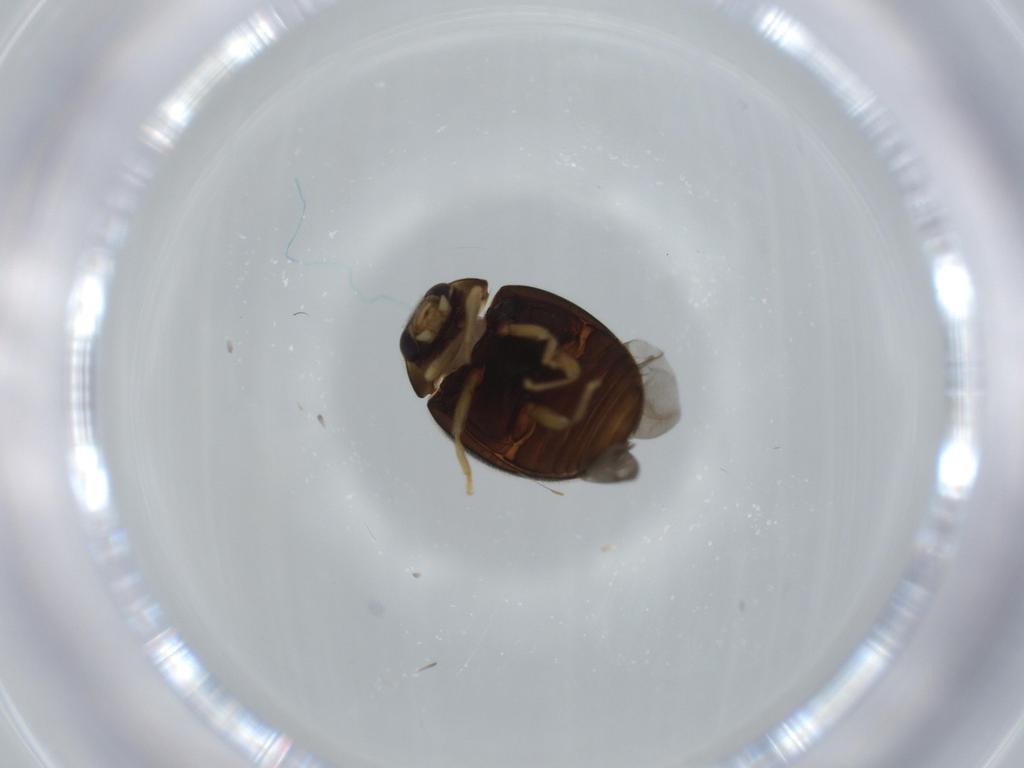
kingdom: Animalia
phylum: Arthropoda
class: Insecta
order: Coleoptera
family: Coccinellidae
